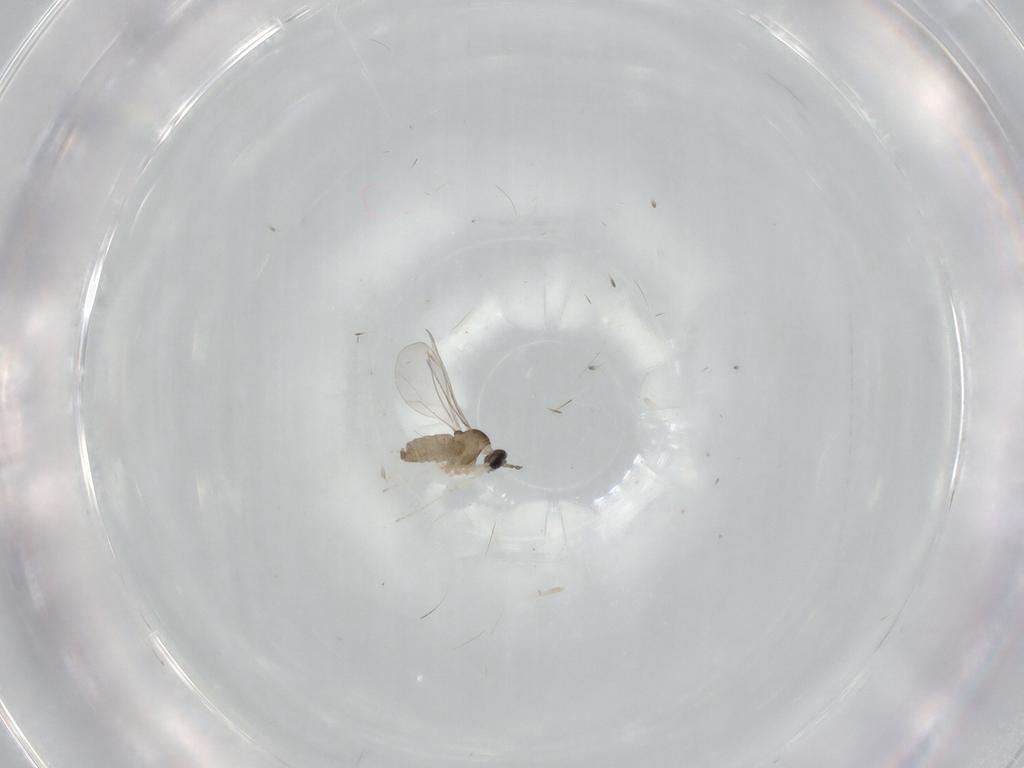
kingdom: Animalia
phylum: Arthropoda
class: Insecta
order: Diptera
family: Cecidomyiidae
